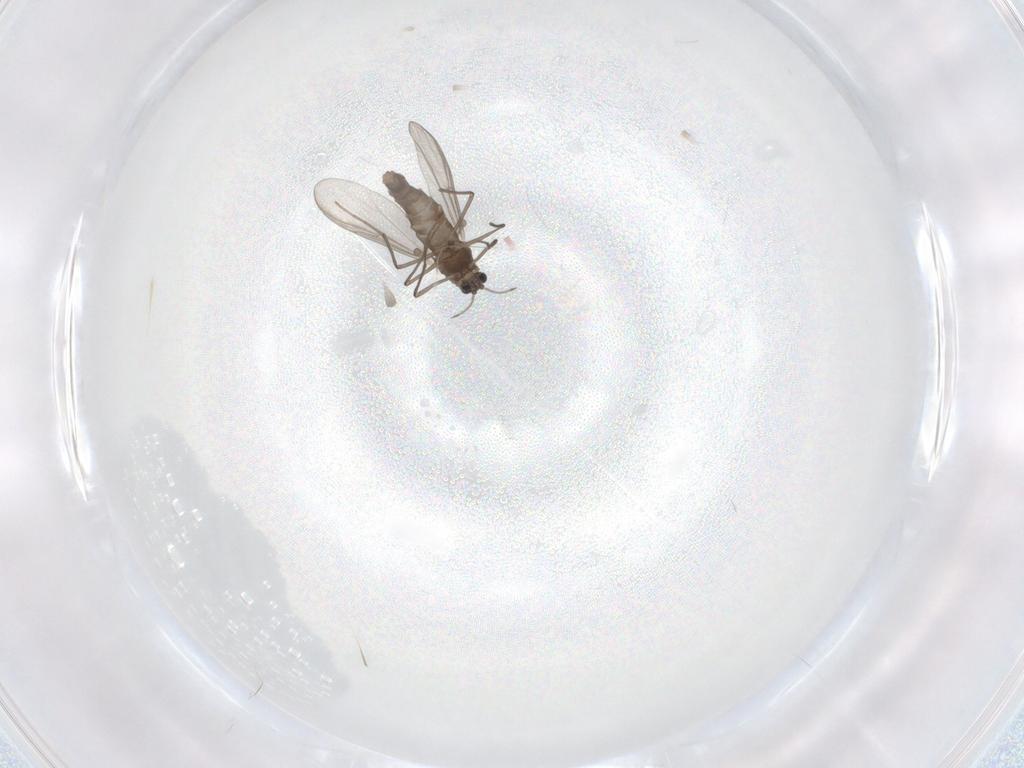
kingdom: Animalia
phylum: Arthropoda
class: Insecta
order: Diptera
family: Chironomidae
